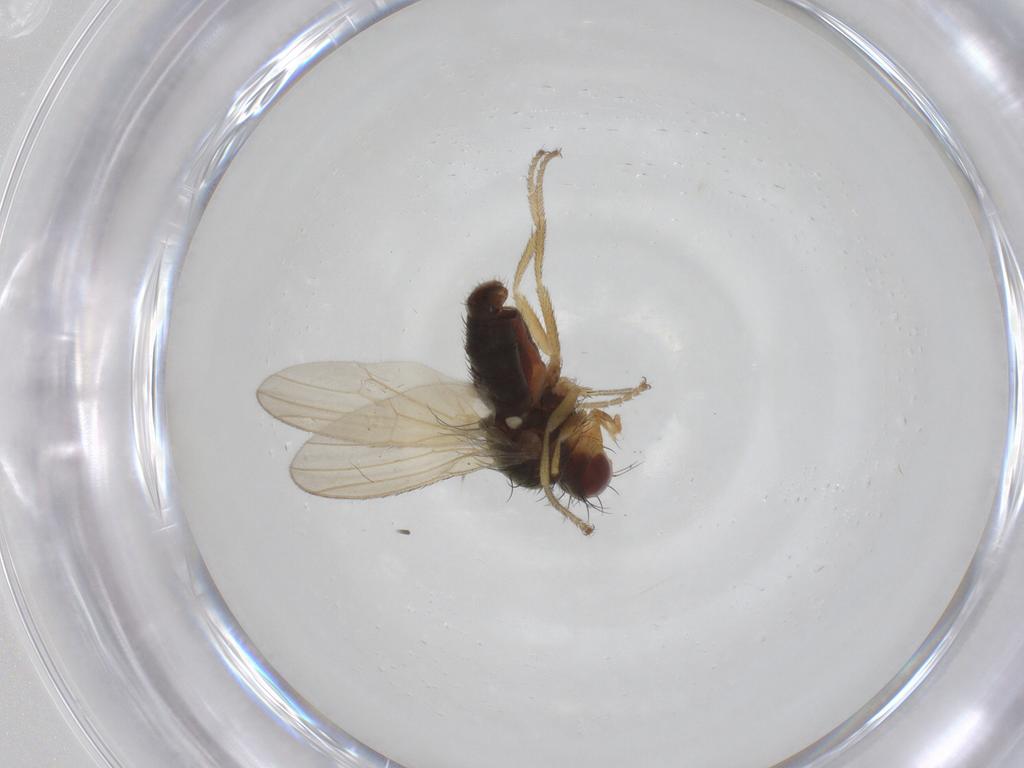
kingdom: Animalia
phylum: Arthropoda
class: Insecta
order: Diptera
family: Heleomyzidae
